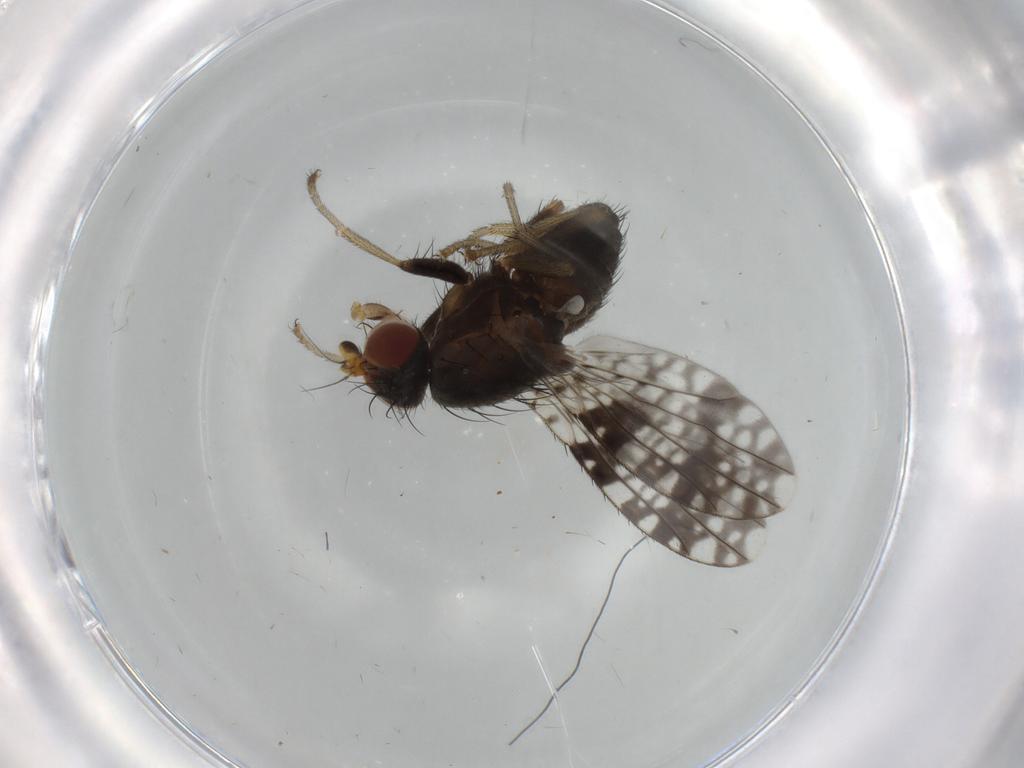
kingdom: Animalia
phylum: Arthropoda
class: Insecta
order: Diptera
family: Tephritidae
